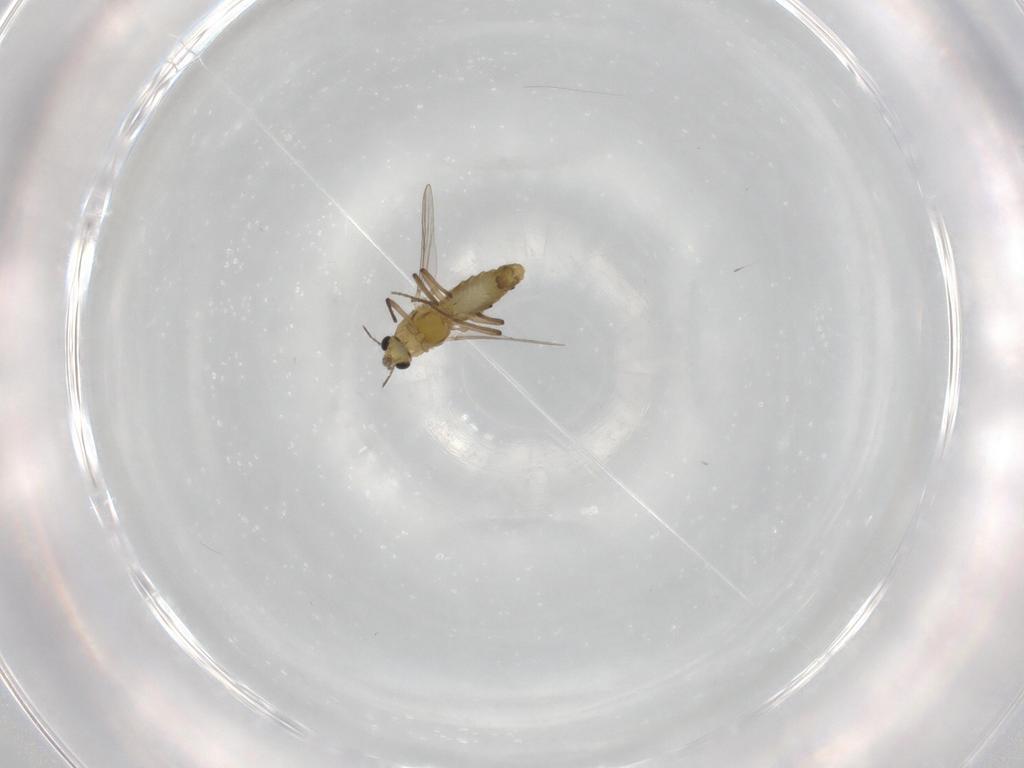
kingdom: Animalia
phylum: Arthropoda
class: Insecta
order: Diptera
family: Chironomidae
